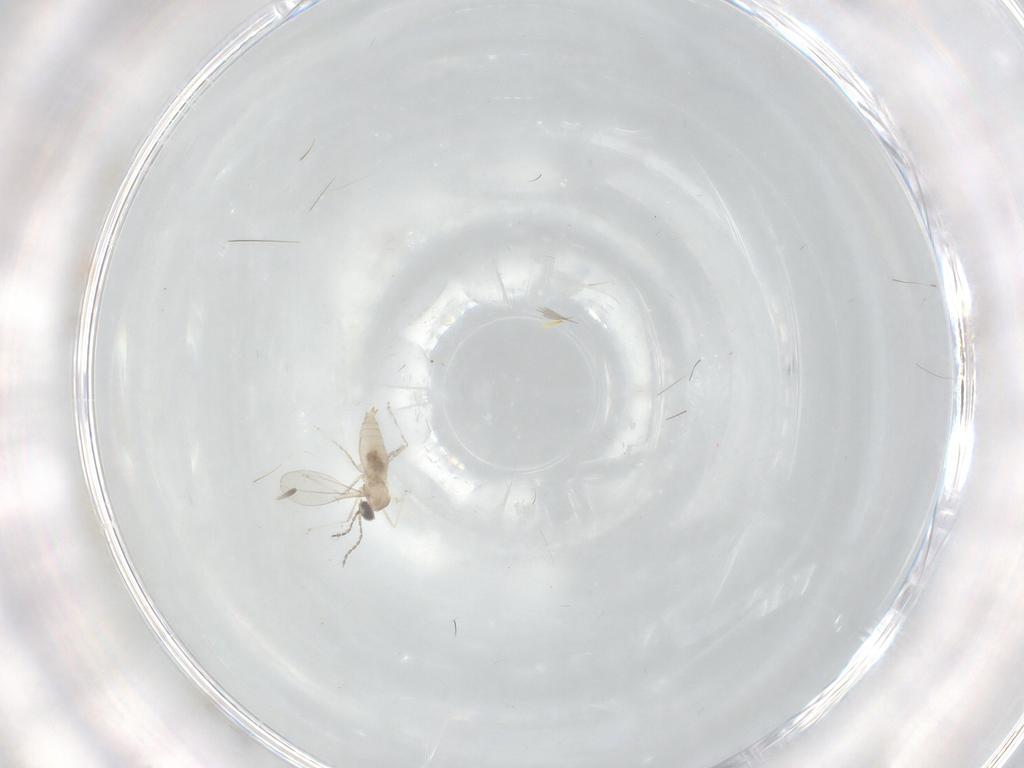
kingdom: Animalia
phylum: Arthropoda
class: Insecta
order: Diptera
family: Cecidomyiidae
